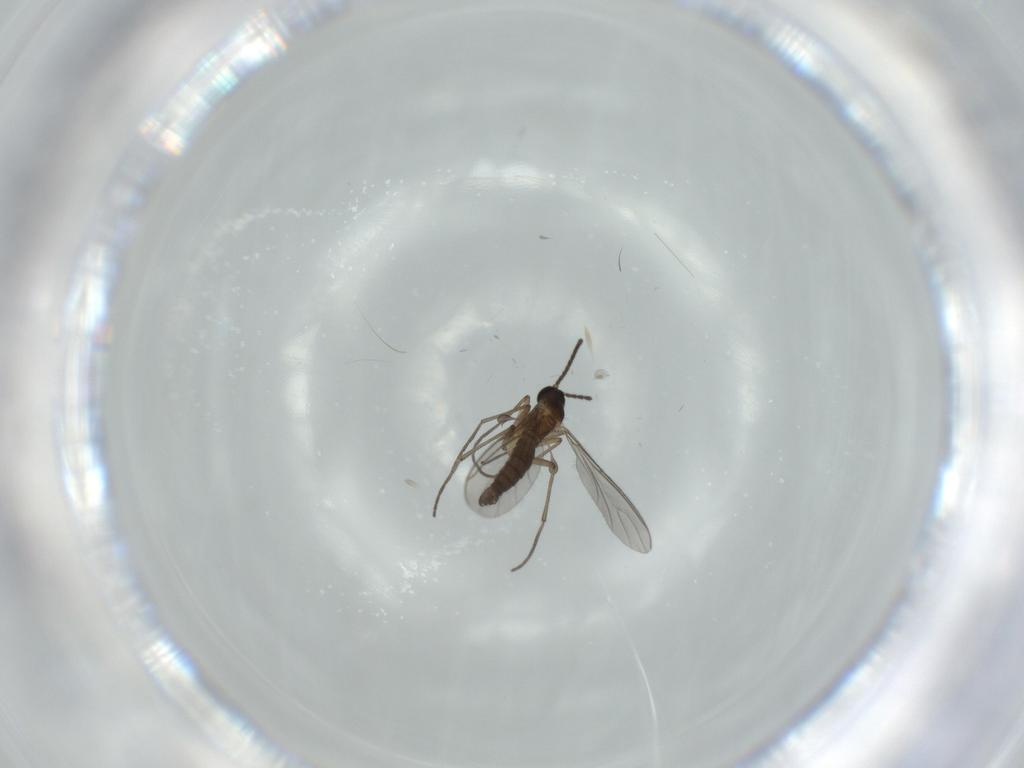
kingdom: Animalia
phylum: Arthropoda
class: Insecta
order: Diptera
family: Sciaridae
